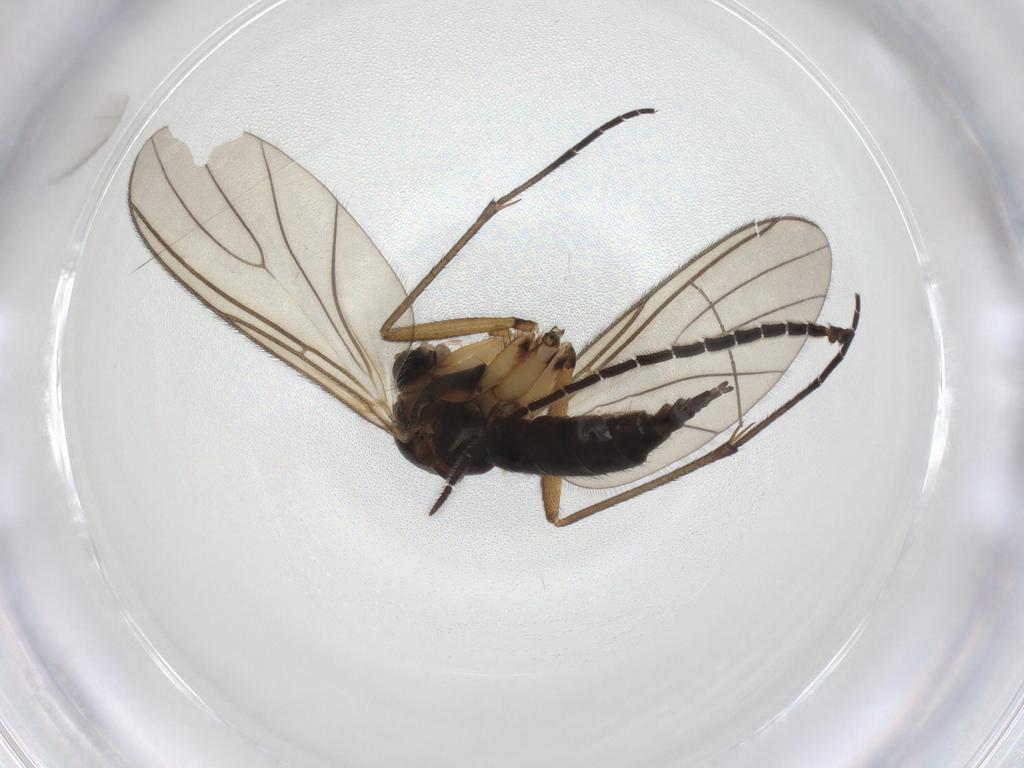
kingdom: Animalia
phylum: Arthropoda
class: Insecta
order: Diptera
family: Sciaridae
